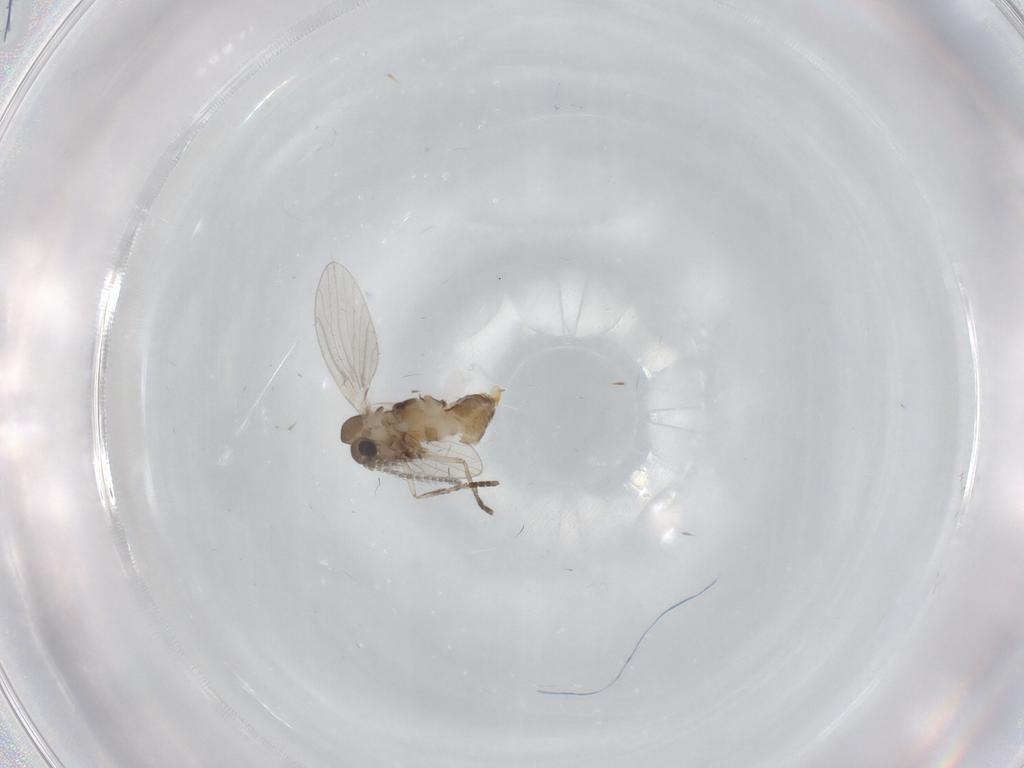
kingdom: Animalia
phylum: Arthropoda
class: Insecta
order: Diptera
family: Psychodidae
